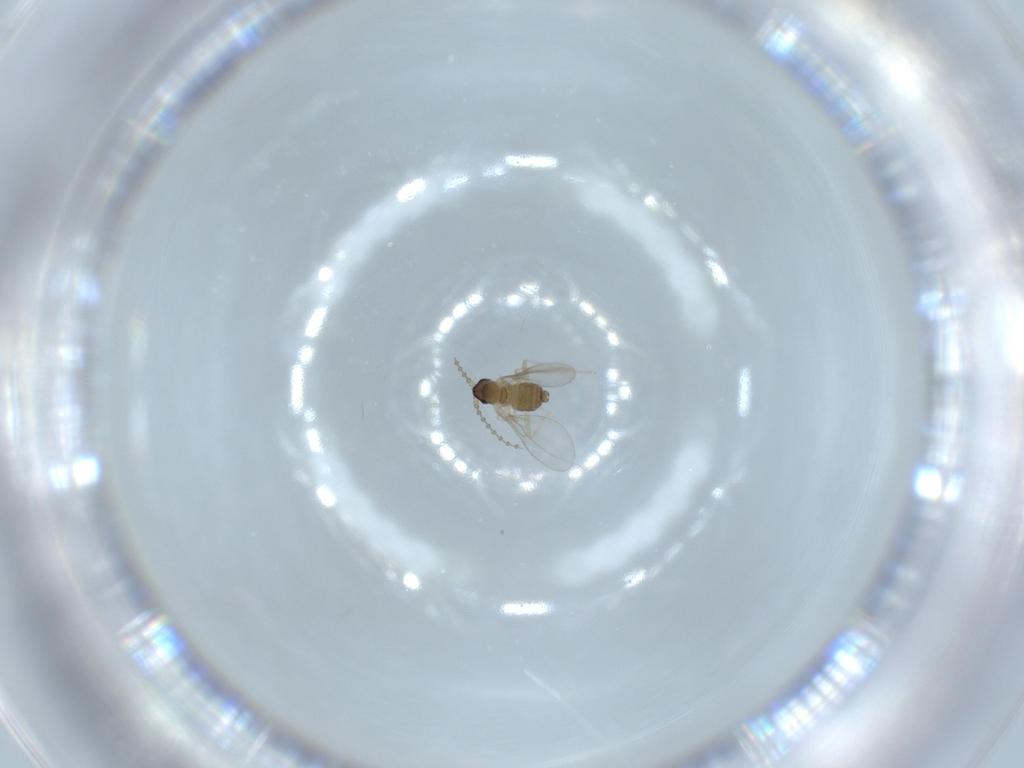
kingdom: Animalia
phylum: Arthropoda
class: Insecta
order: Diptera
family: Cecidomyiidae
